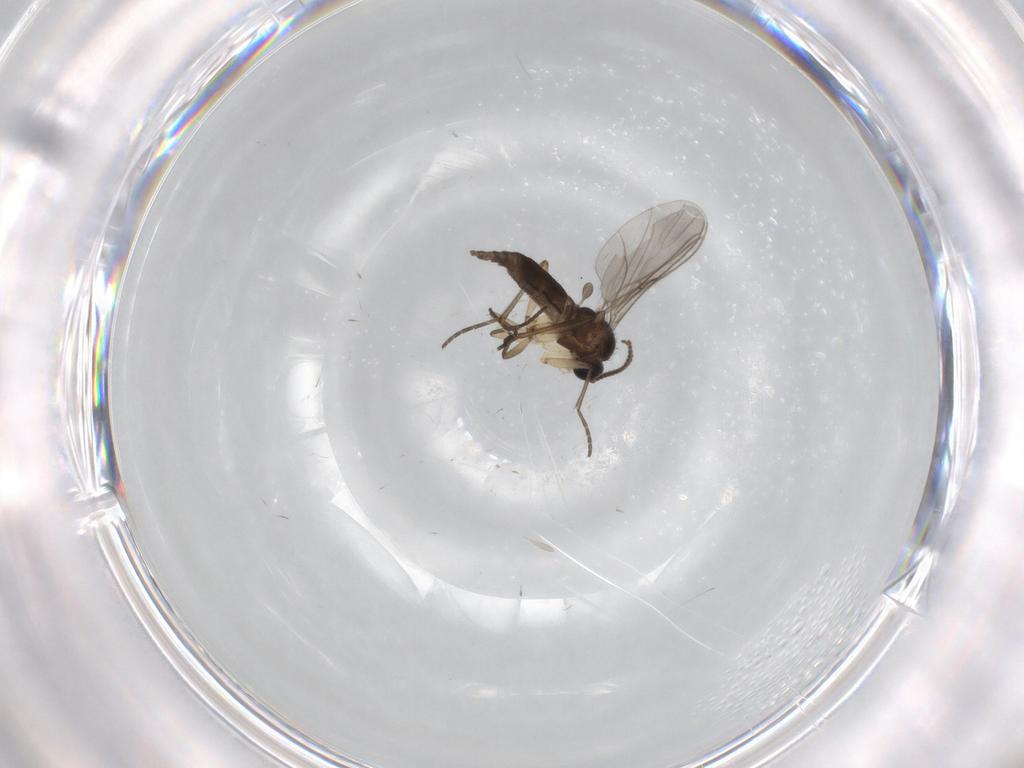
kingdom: Animalia
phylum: Arthropoda
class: Insecta
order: Diptera
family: Sciaridae
